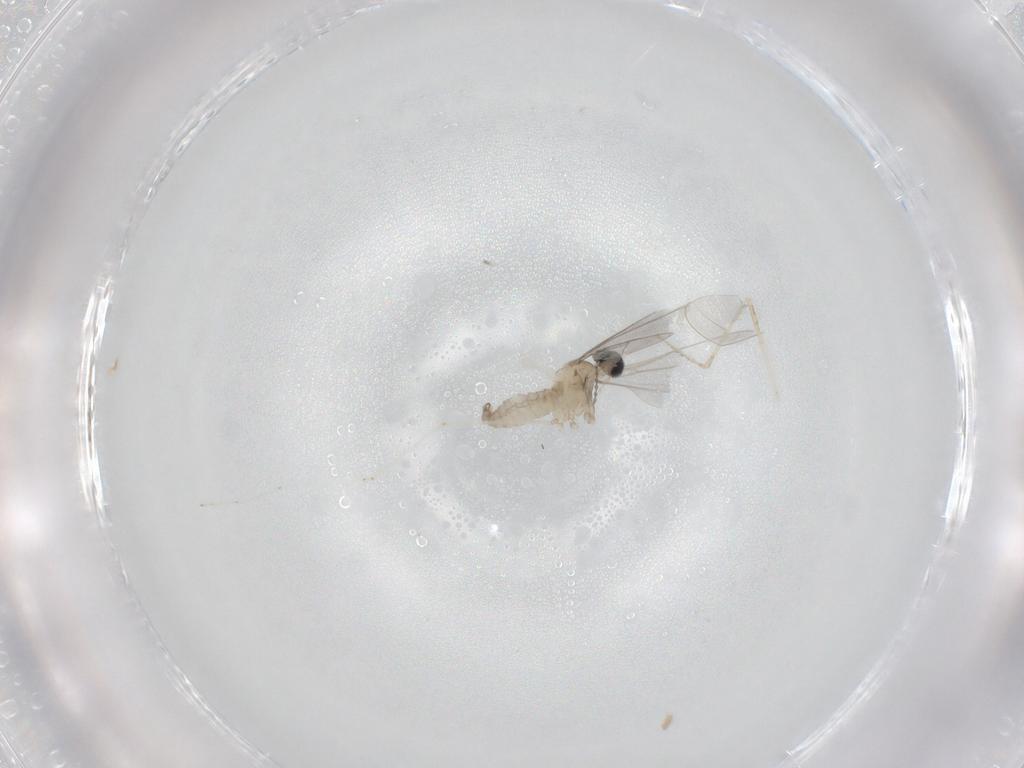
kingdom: Animalia
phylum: Arthropoda
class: Insecta
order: Diptera
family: Cecidomyiidae
